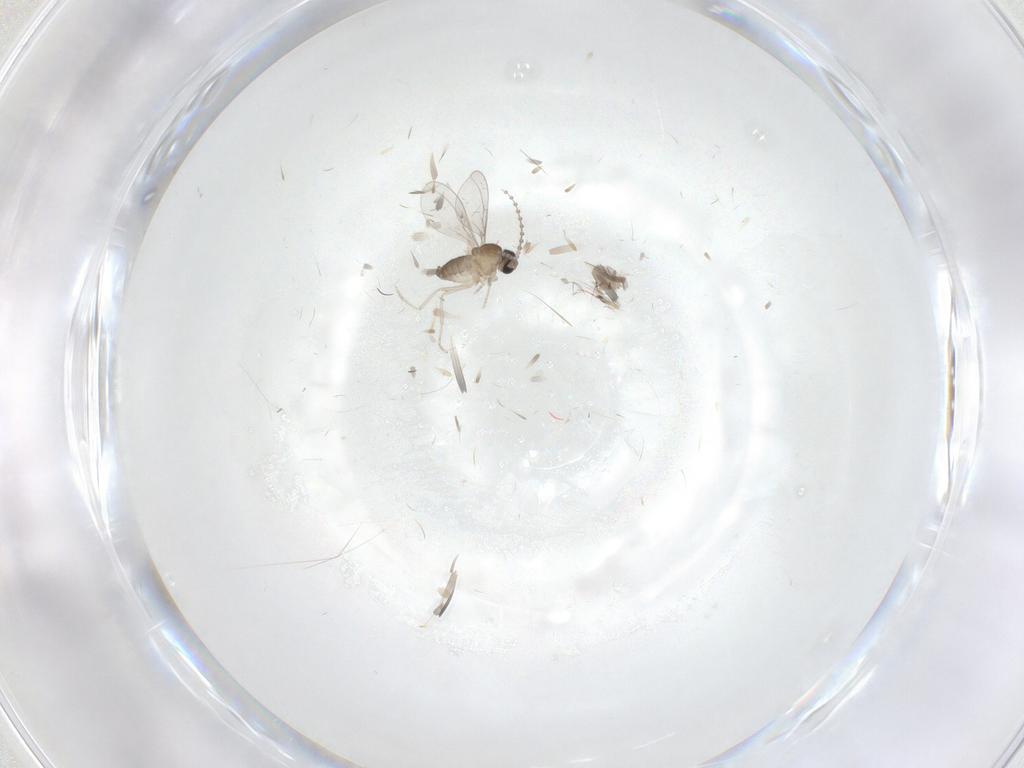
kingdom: Animalia
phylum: Arthropoda
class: Insecta
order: Diptera
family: Cecidomyiidae
